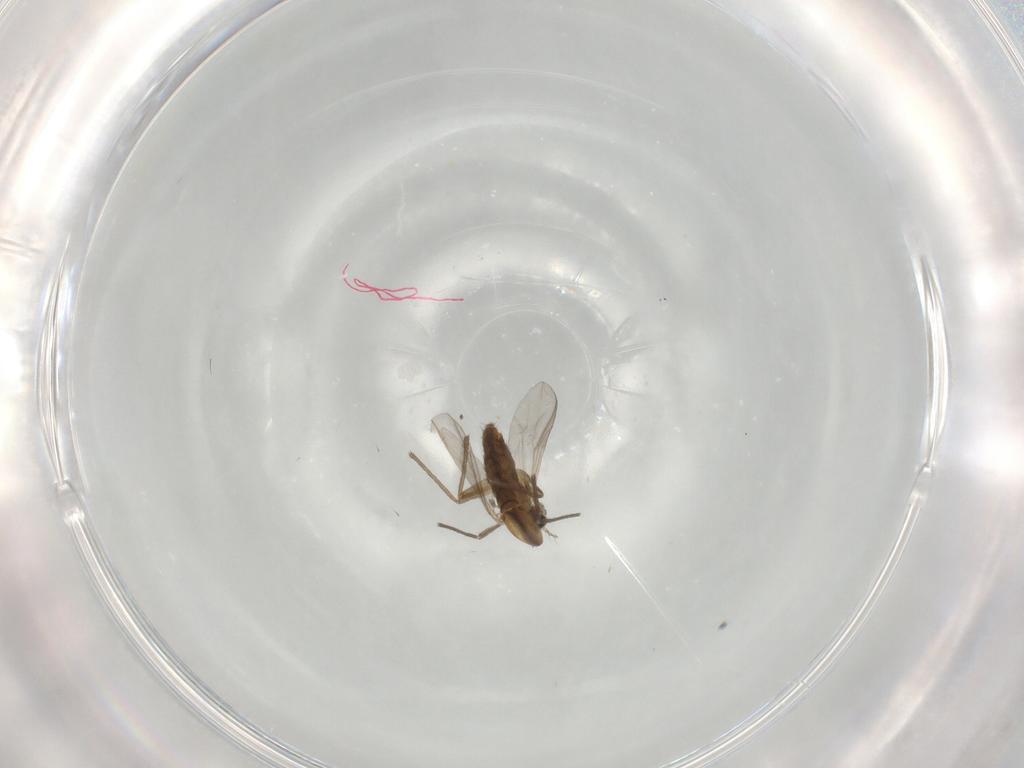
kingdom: Animalia
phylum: Arthropoda
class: Insecta
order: Diptera
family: Chironomidae
